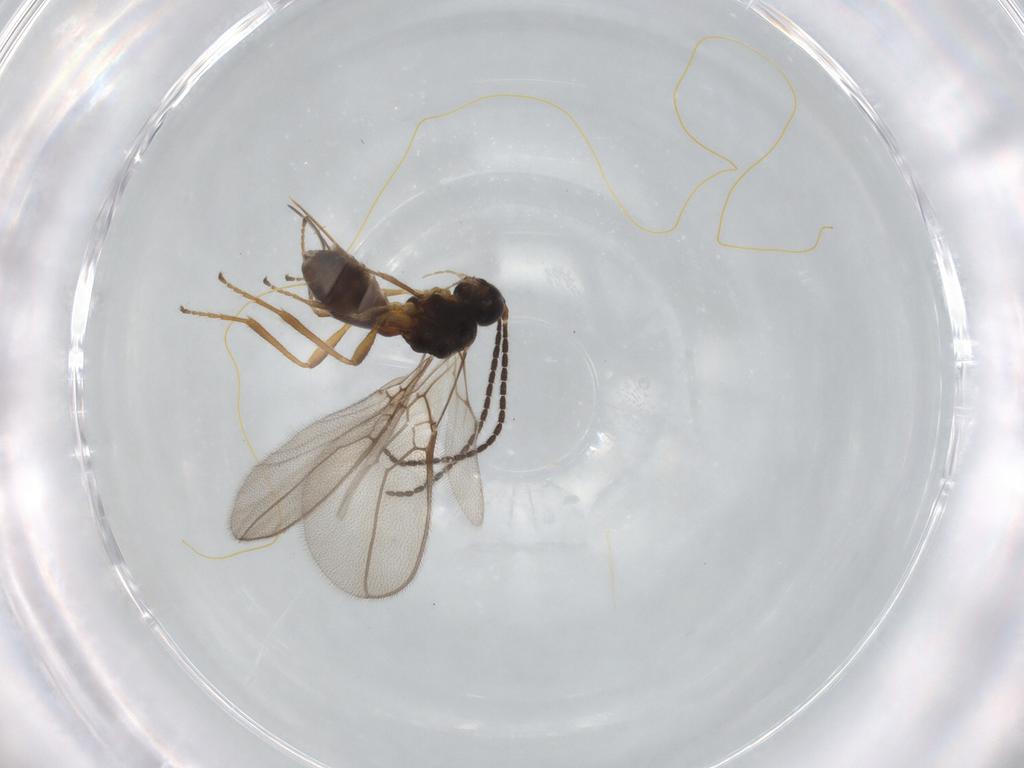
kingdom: Animalia
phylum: Arthropoda
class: Insecta
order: Hymenoptera
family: Braconidae
